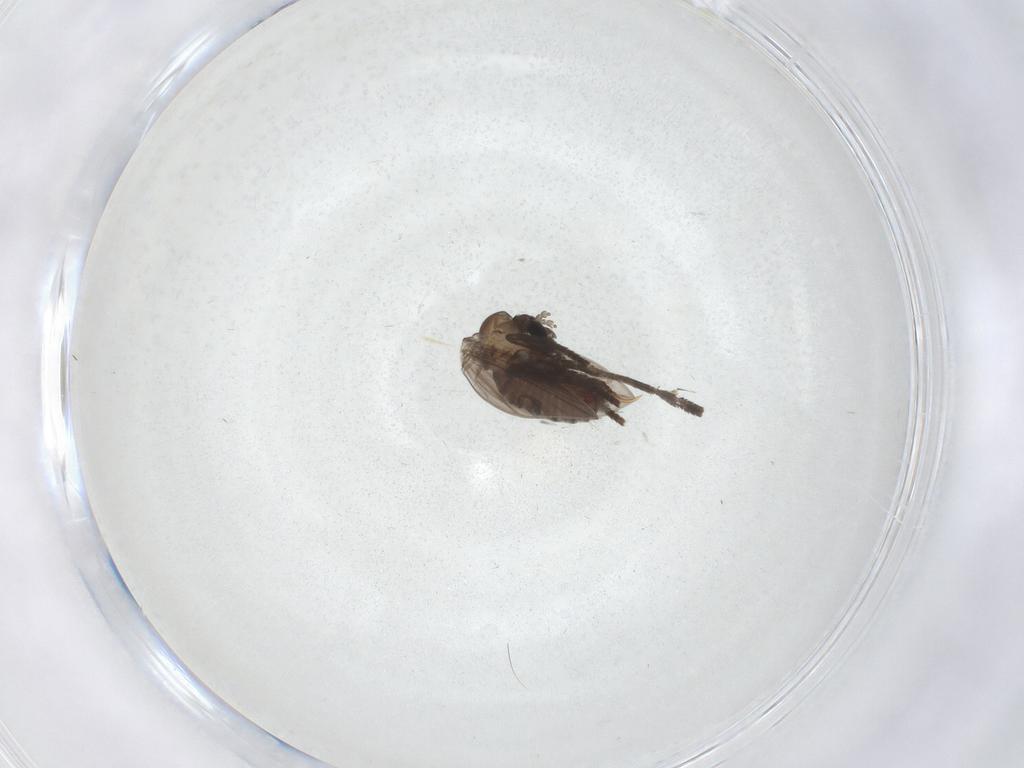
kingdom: Animalia
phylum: Arthropoda
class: Insecta
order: Diptera
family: Psychodidae
